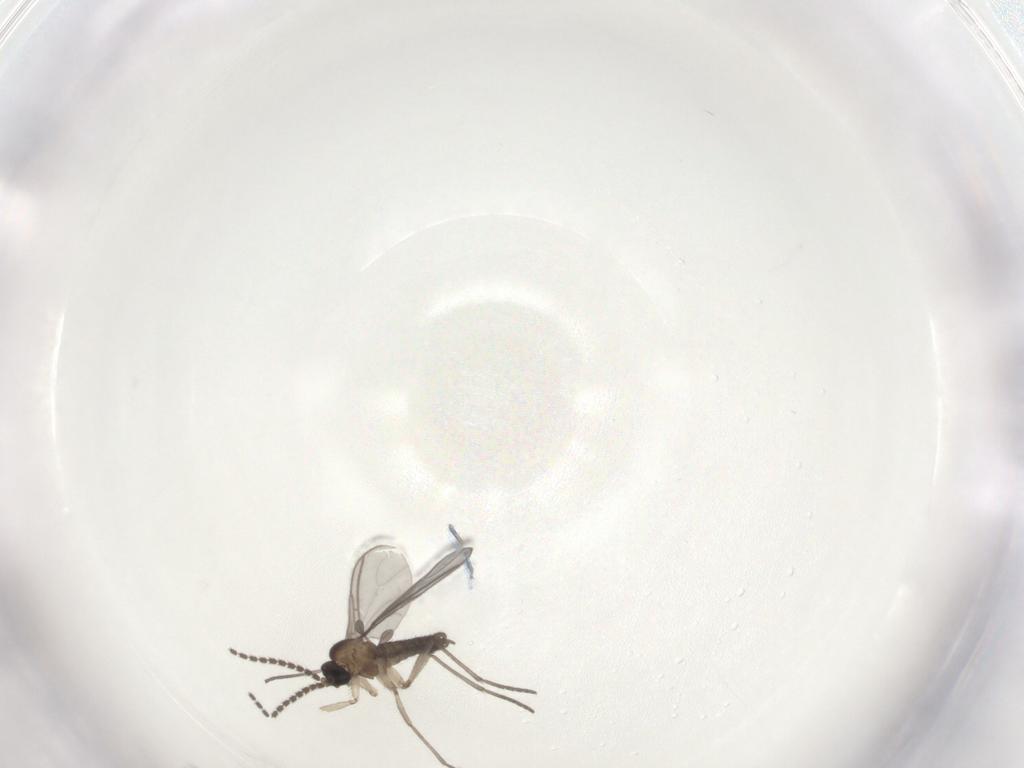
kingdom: Animalia
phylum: Arthropoda
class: Insecta
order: Diptera
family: Sciaridae
